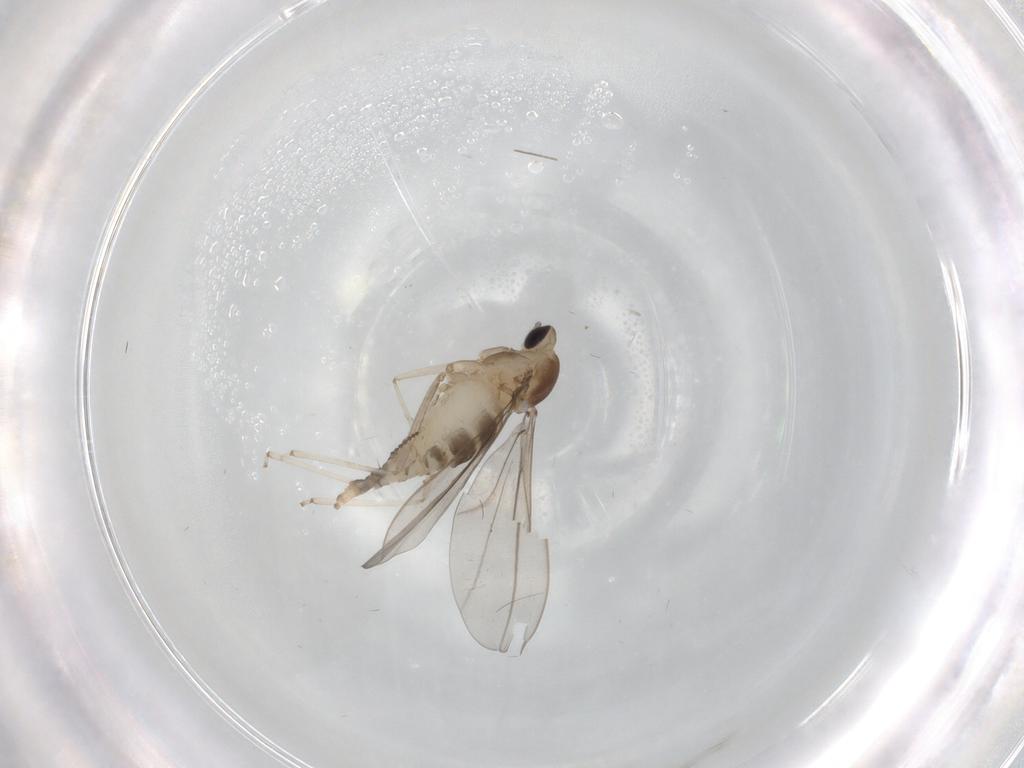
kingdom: Animalia
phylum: Arthropoda
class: Insecta
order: Diptera
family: Cecidomyiidae
